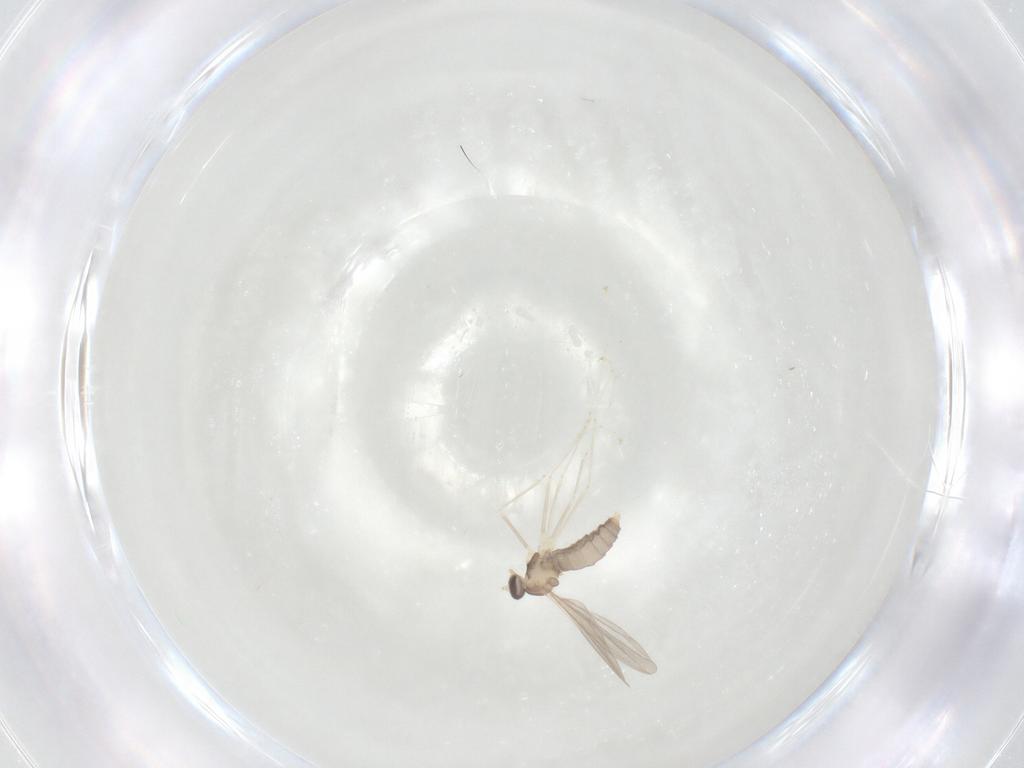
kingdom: Animalia
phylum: Arthropoda
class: Insecta
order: Diptera
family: Cecidomyiidae
